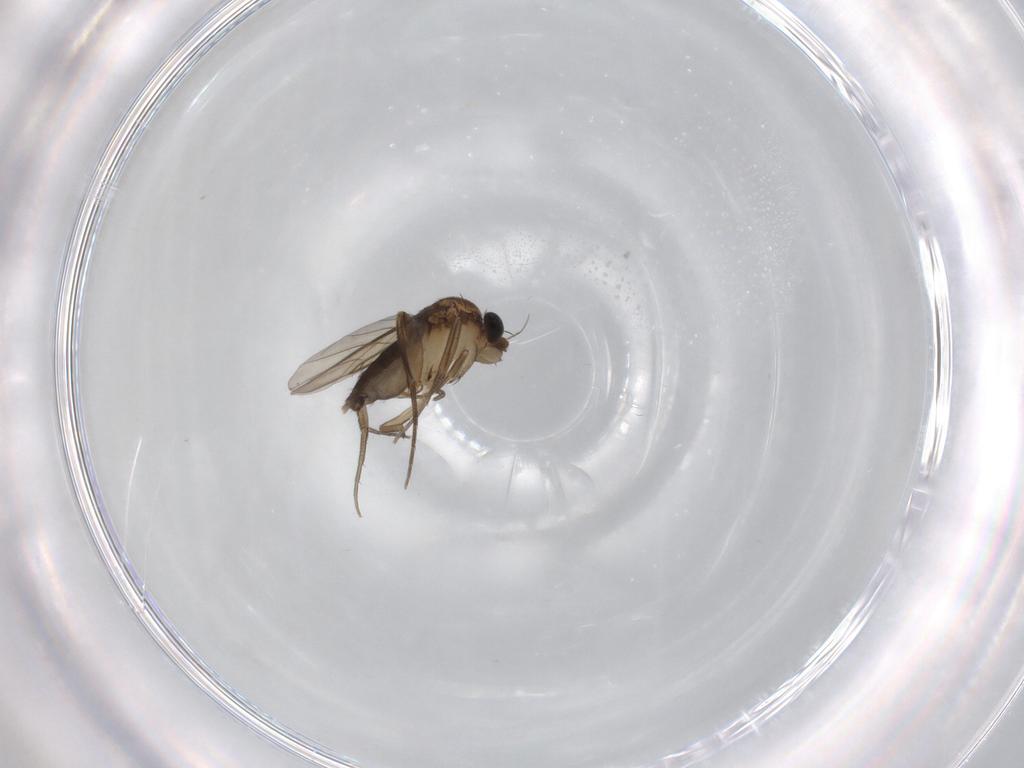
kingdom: Animalia
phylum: Arthropoda
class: Insecta
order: Diptera
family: Phoridae
